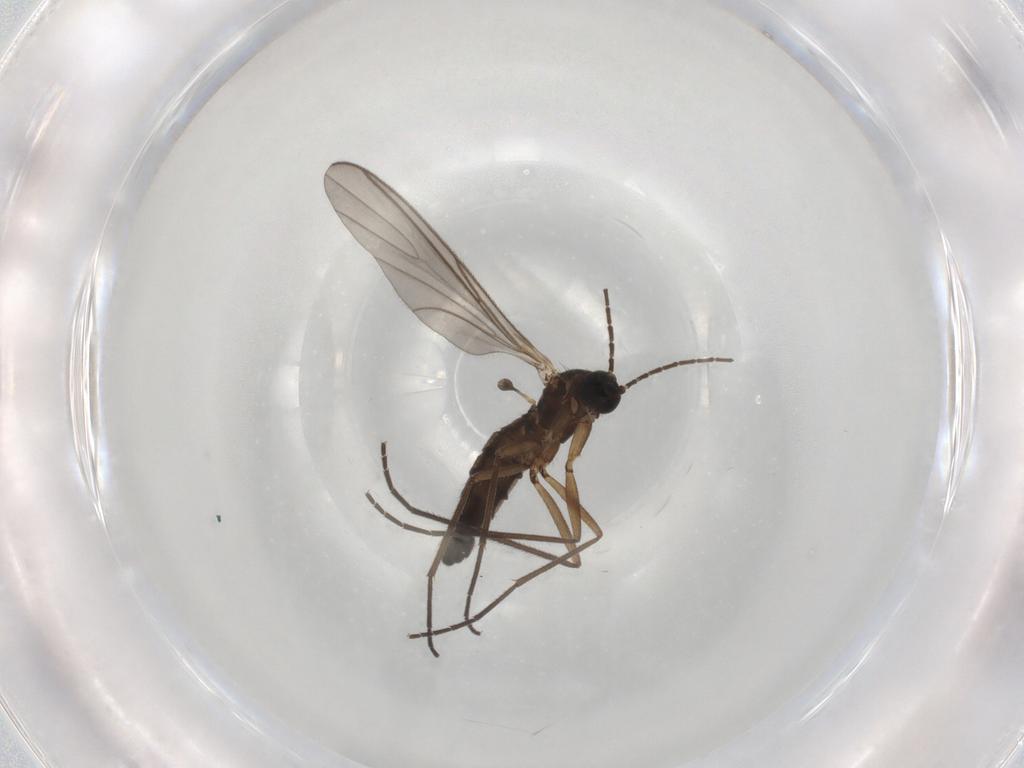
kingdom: Animalia
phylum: Arthropoda
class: Insecta
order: Diptera
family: Sciaridae
